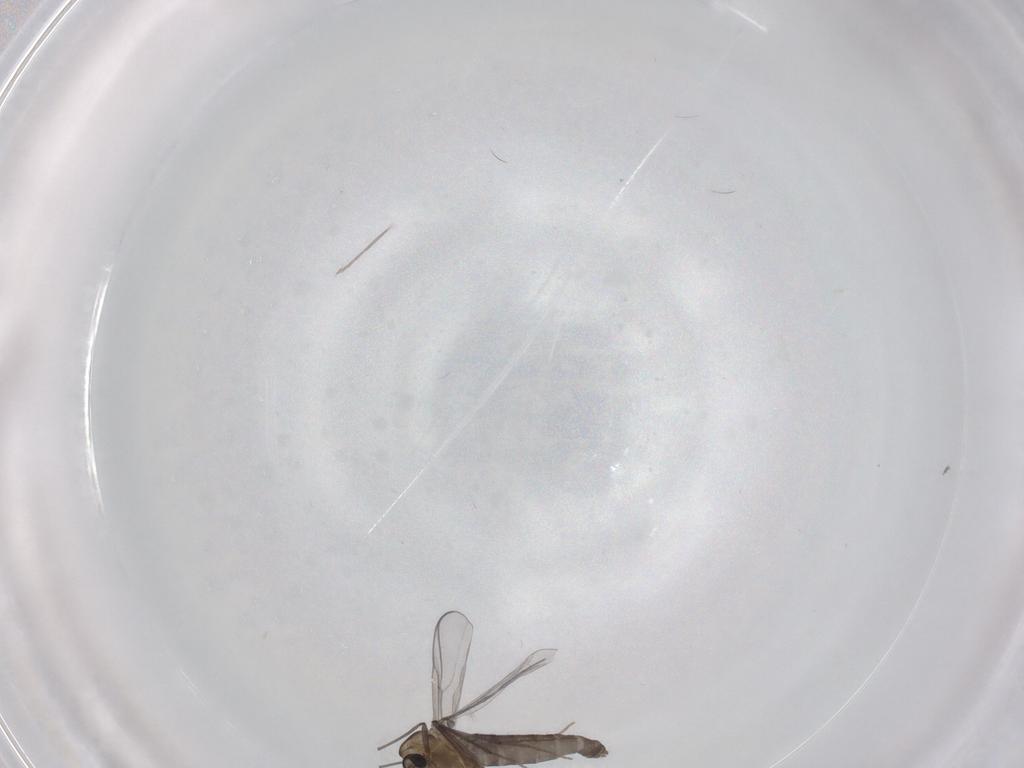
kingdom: Animalia
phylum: Arthropoda
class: Insecta
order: Diptera
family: Chironomidae
